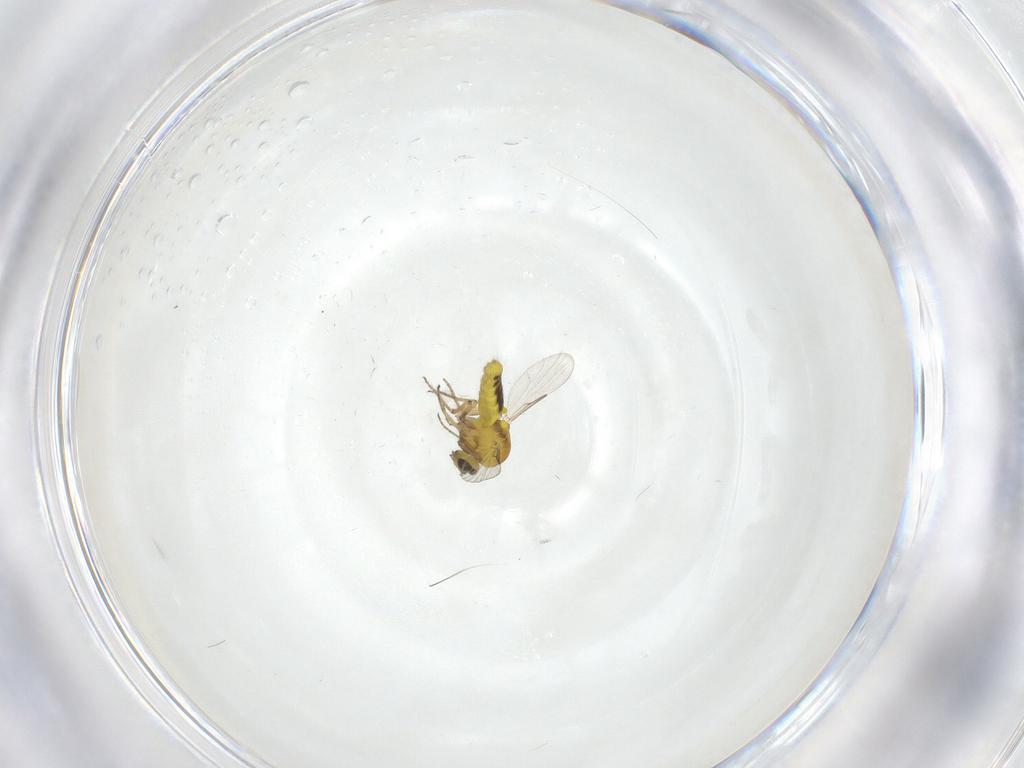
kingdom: Animalia
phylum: Arthropoda
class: Insecta
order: Diptera
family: Ceratopogonidae
